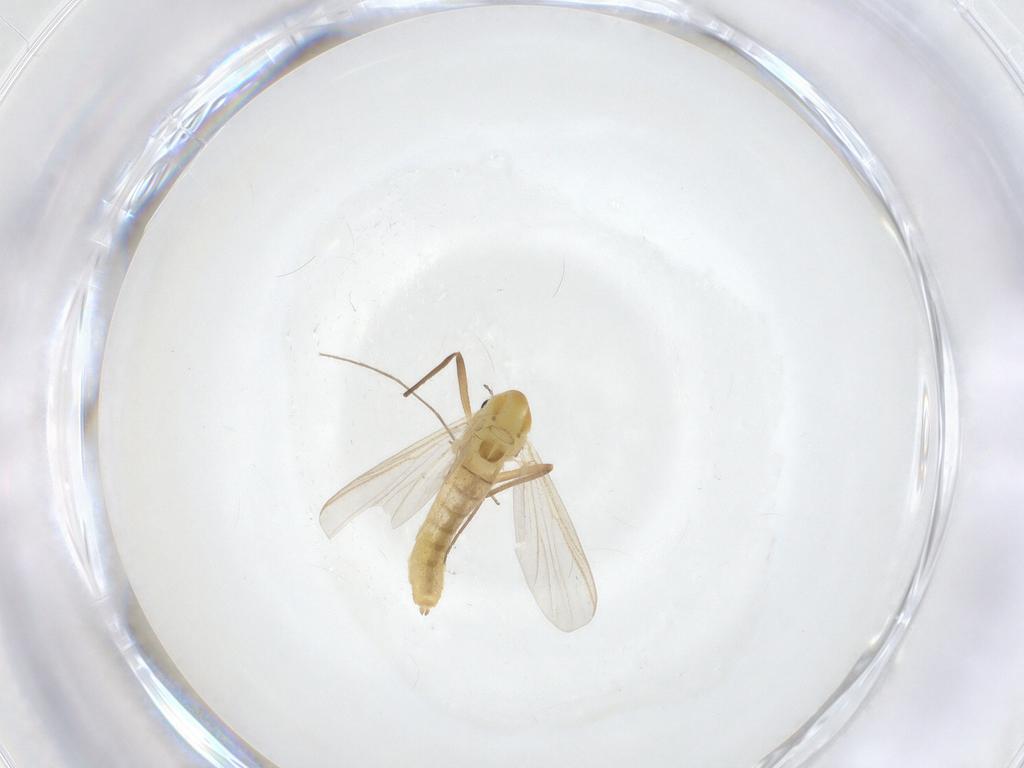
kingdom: Animalia
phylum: Arthropoda
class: Insecta
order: Diptera
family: Chironomidae
